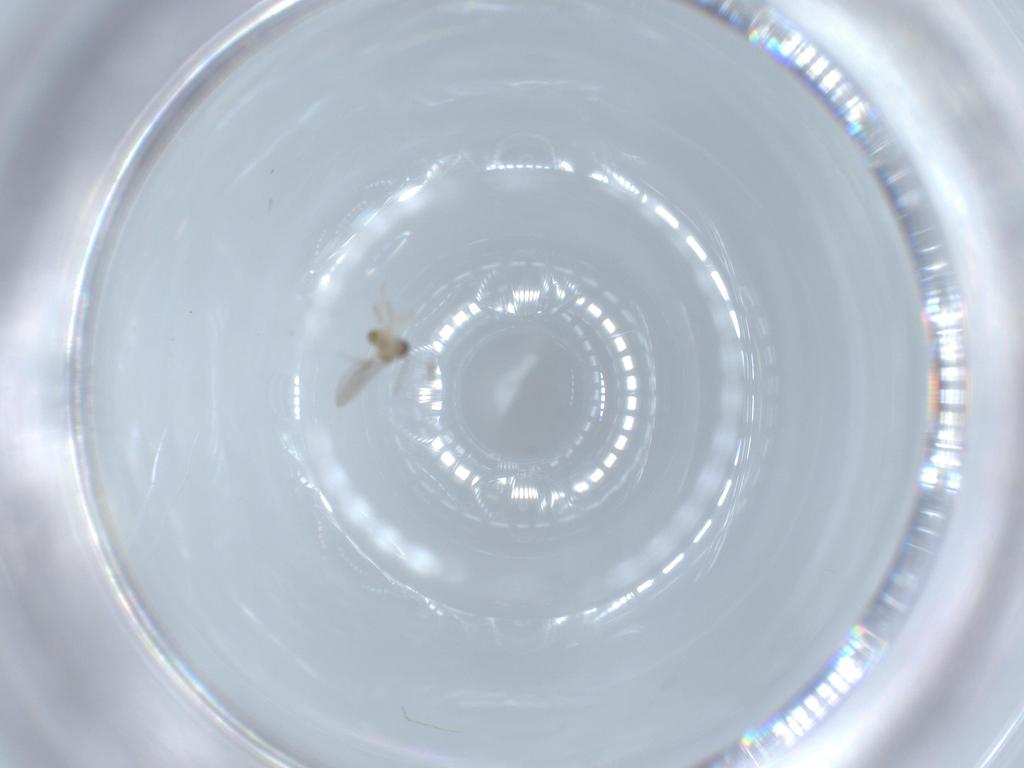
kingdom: Animalia
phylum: Arthropoda
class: Insecta
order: Diptera
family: Cecidomyiidae
